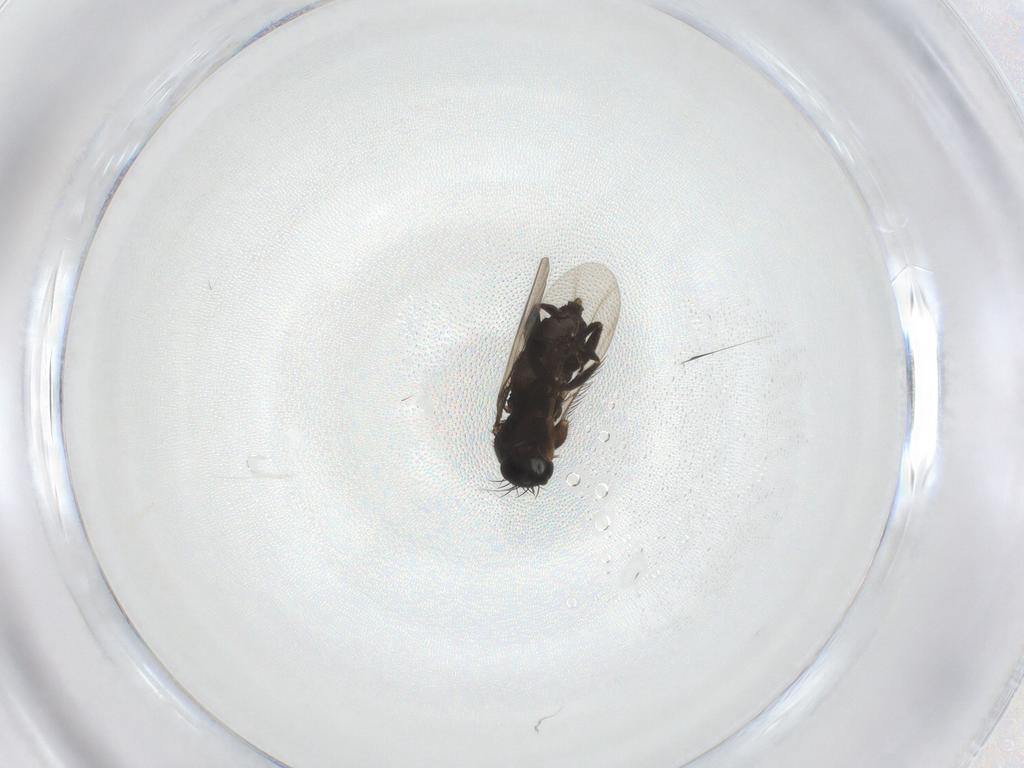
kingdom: Animalia
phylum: Arthropoda
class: Insecta
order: Diptera
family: Phoridae
